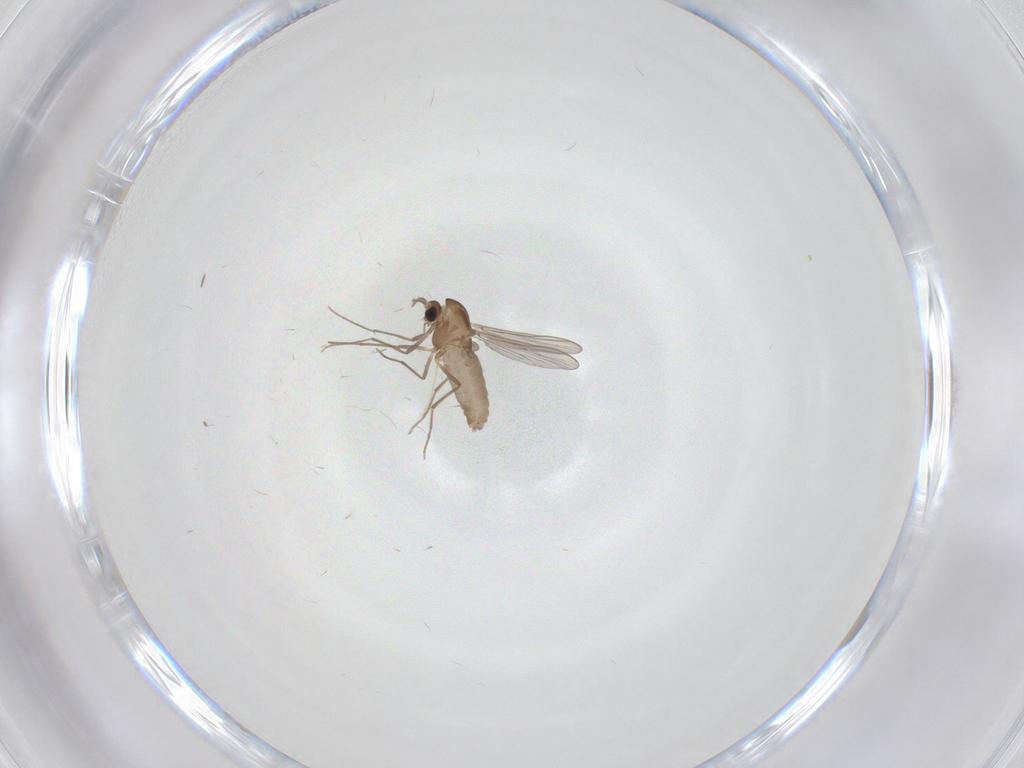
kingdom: Animalia
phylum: Arthropoda
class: Insecta
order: Diptera
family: Chironomidae
